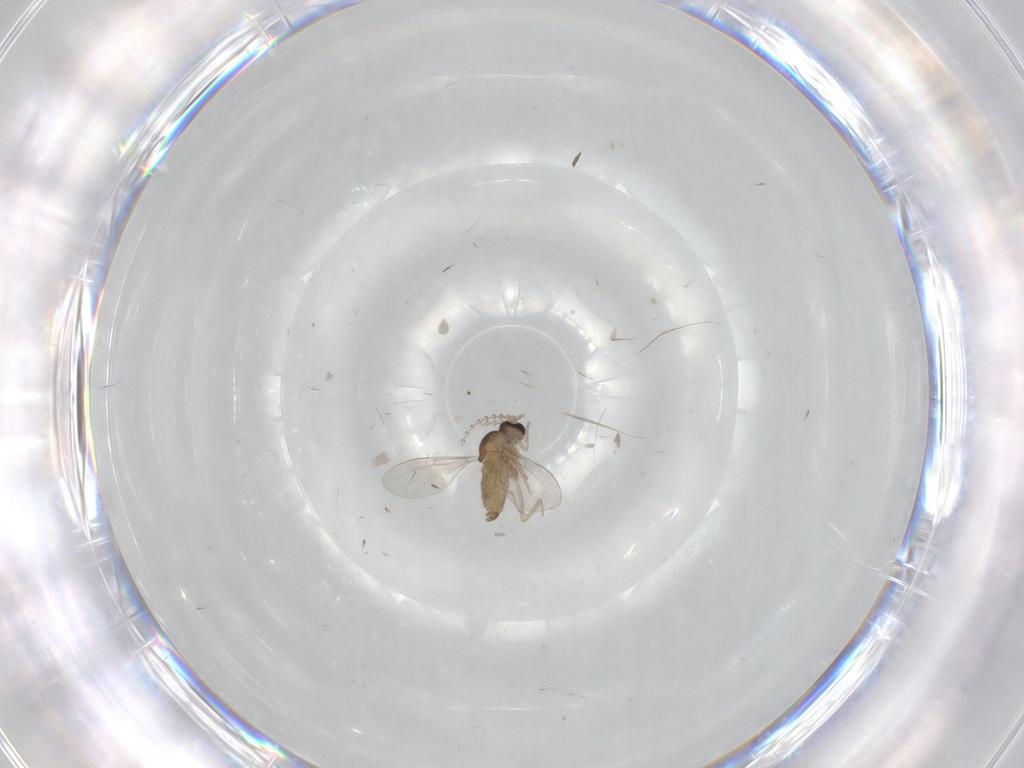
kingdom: Animalia
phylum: Arthropoda
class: Insecta
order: Diptera
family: Cecidomyiidae
